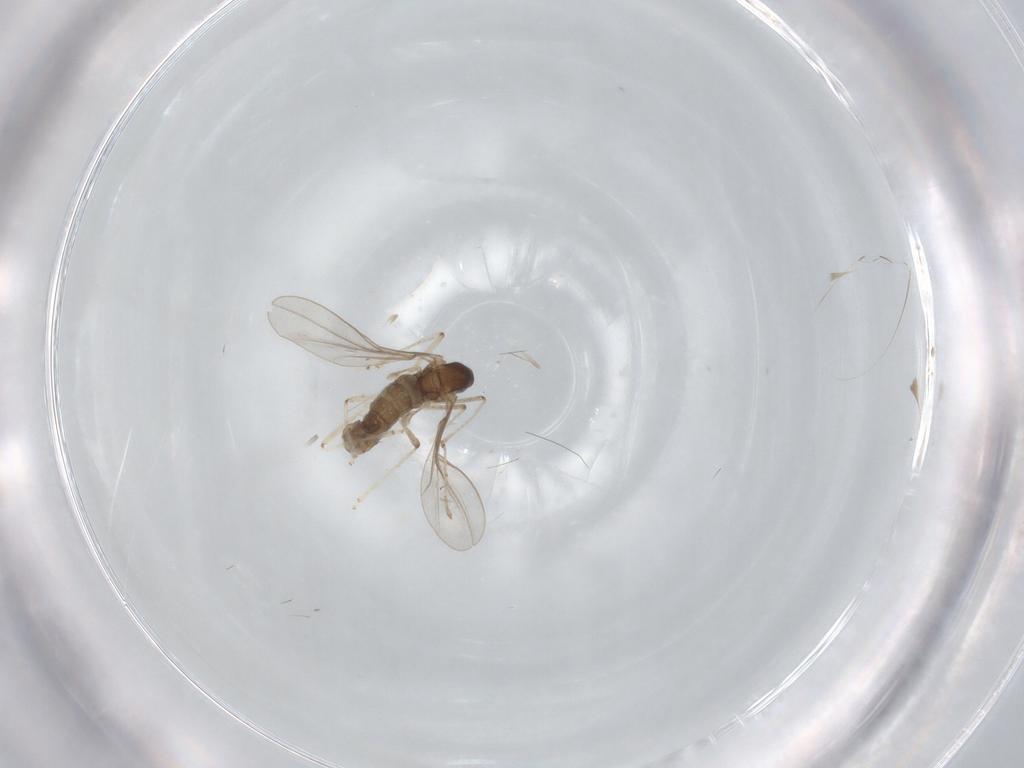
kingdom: Animalia
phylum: Arthropoda
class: Insecta
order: Diptera
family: Cecidomyiidae
